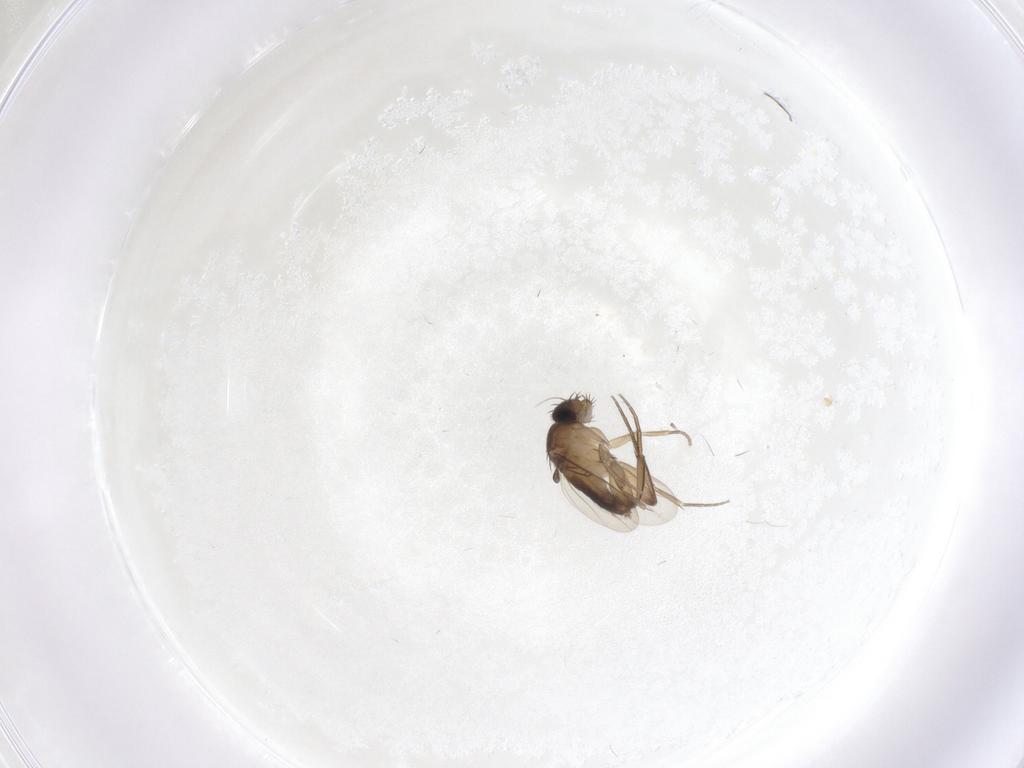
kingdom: Animalia
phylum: Arthropoda
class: Insecta
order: Diptera
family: Phoridae
